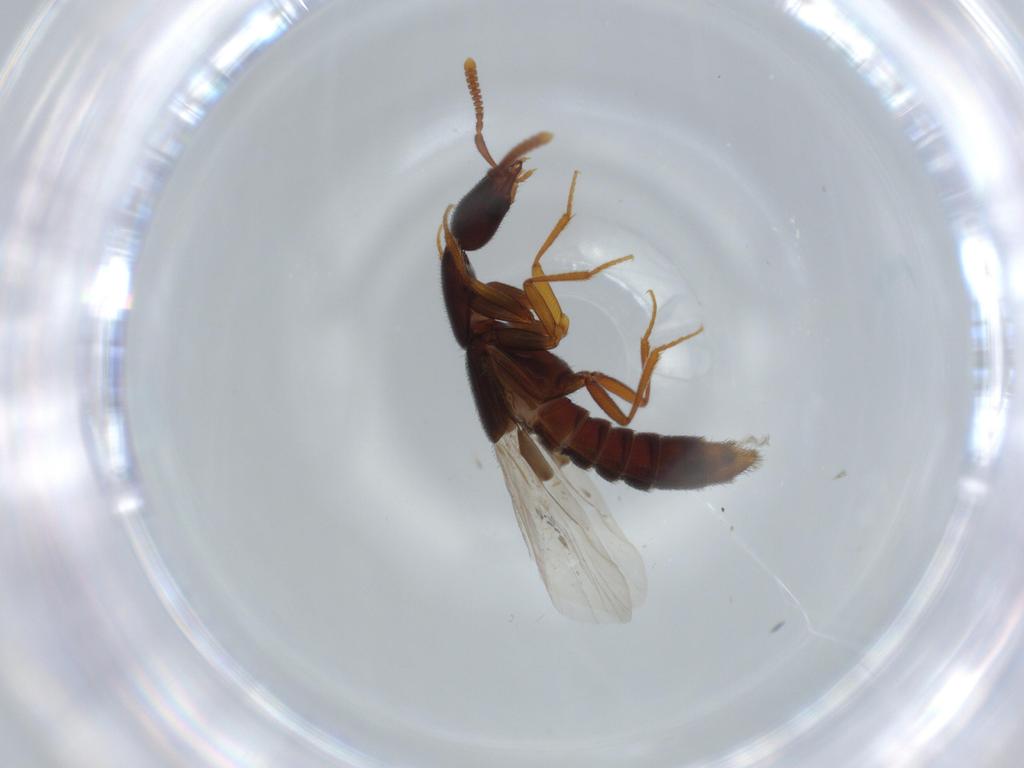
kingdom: Animalia
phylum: Arthropoda
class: Insecta
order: Coleoptera
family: Staphylinidae
